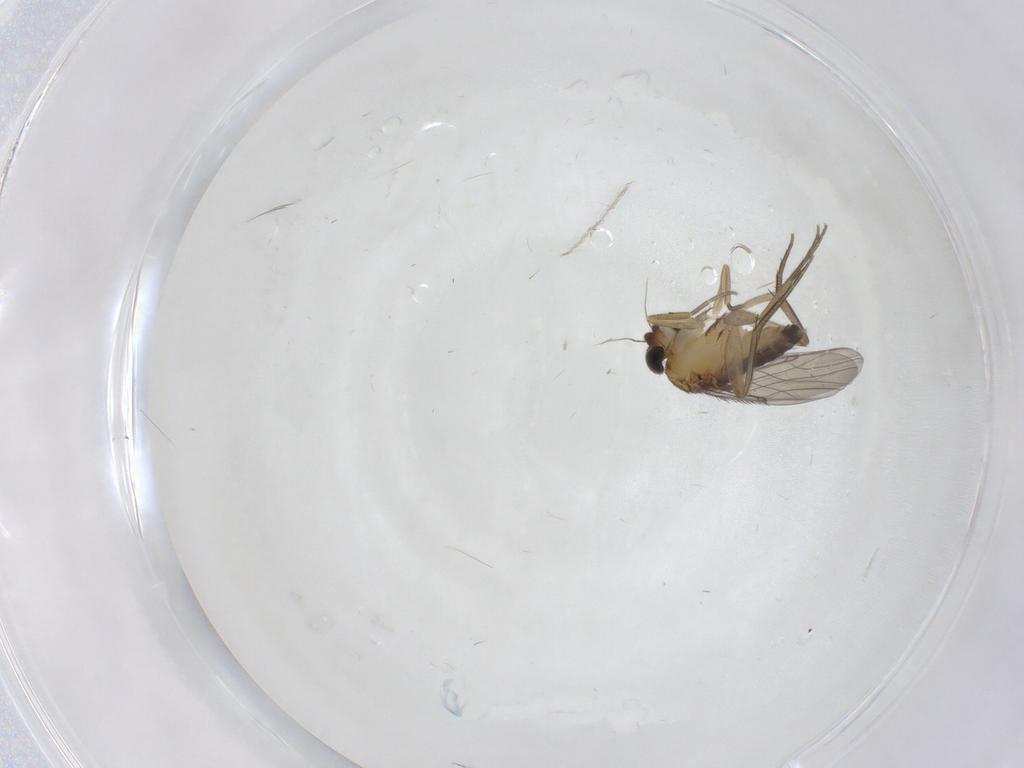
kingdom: Animalia
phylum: Arthropoda
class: Insecta
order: Diptera
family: Phoridae
